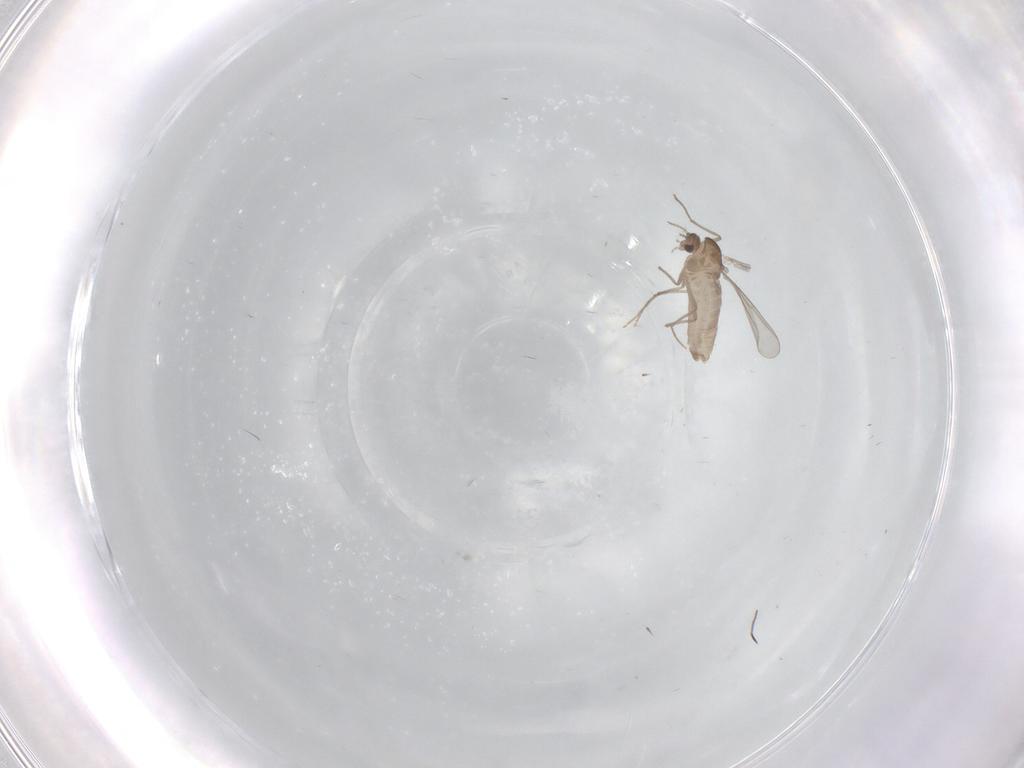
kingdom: Animalia
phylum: Arthropoda
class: Insecta
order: Diptera
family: Chironomidae
